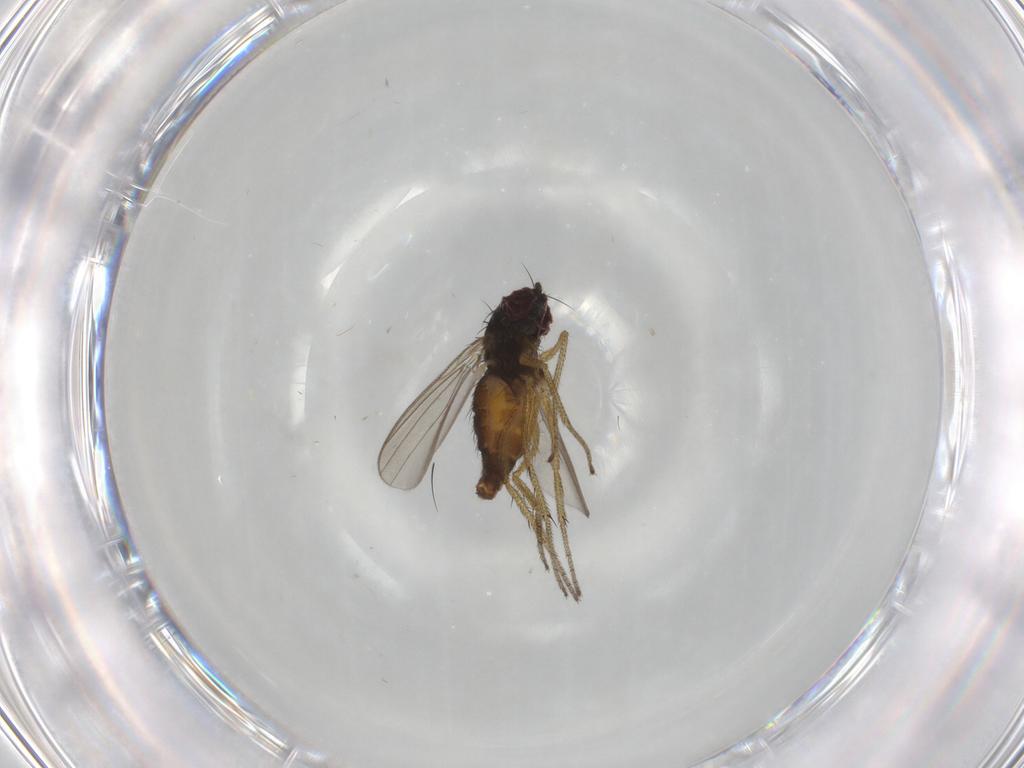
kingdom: Animalia
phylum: Arthropoda
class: Insecta
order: Diptera
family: Dolichopodidae
